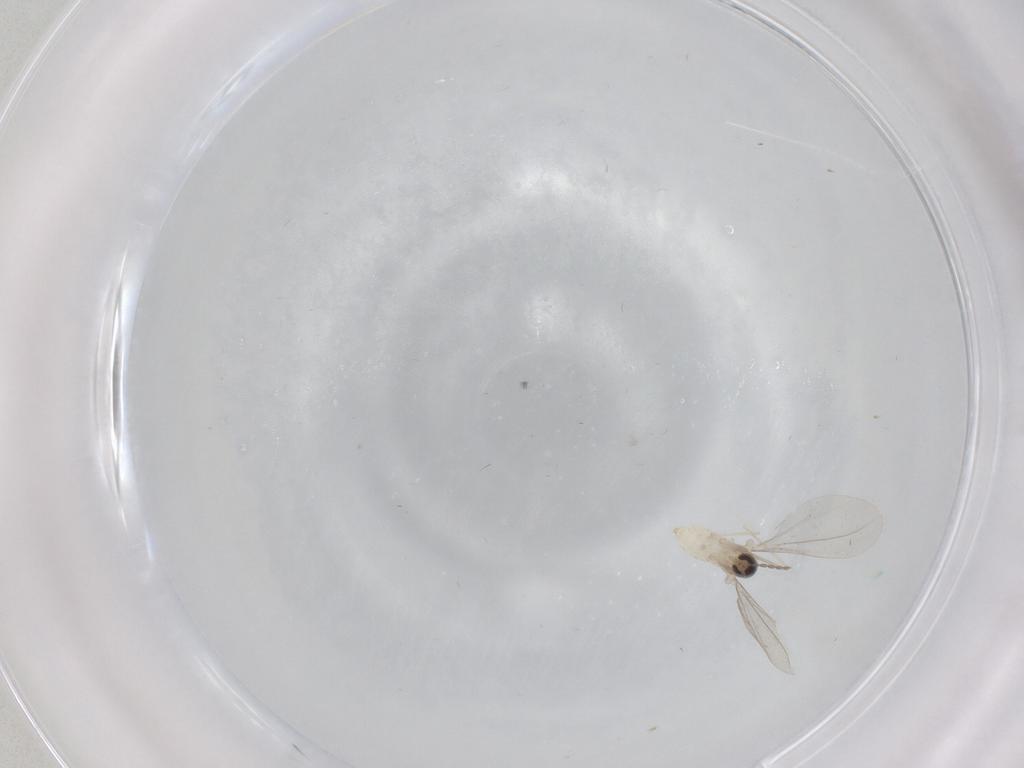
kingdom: Animalia
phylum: Arthropoda
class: Insecta
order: Diptera
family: Cecidomyiidae
